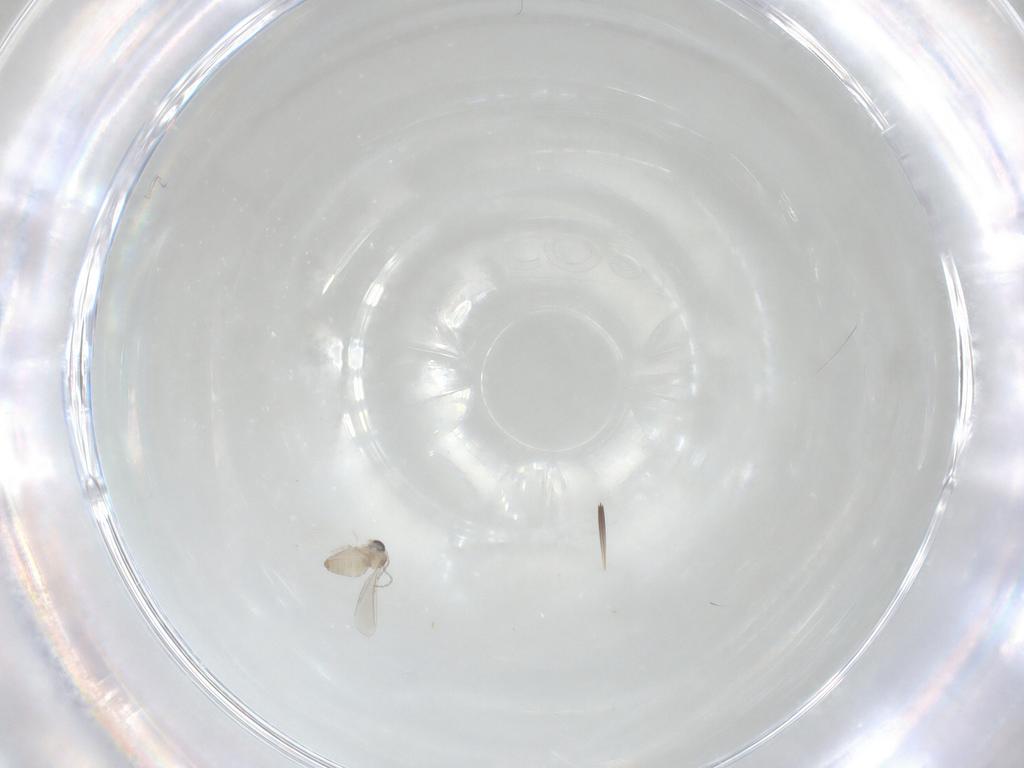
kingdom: Animalia
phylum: Arthropoda
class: Insecta
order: Diptera
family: Cecidomyiidae
